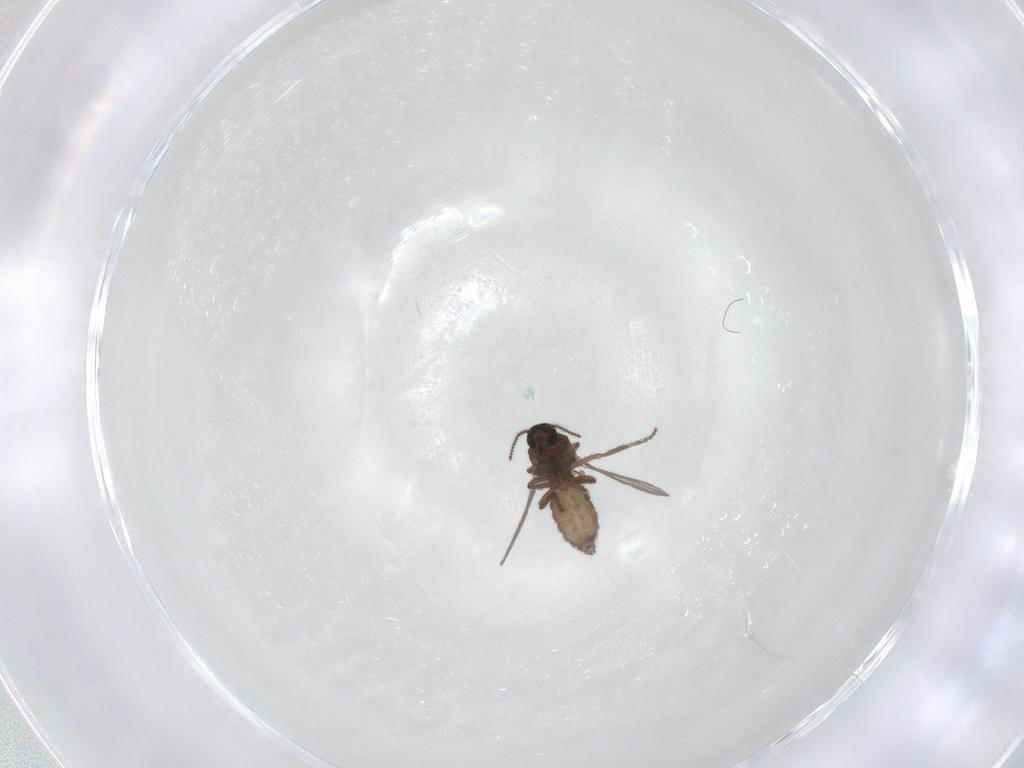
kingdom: Animalia
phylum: Arthropoda
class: Insecta
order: Diptera
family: Ceratopogonidae
